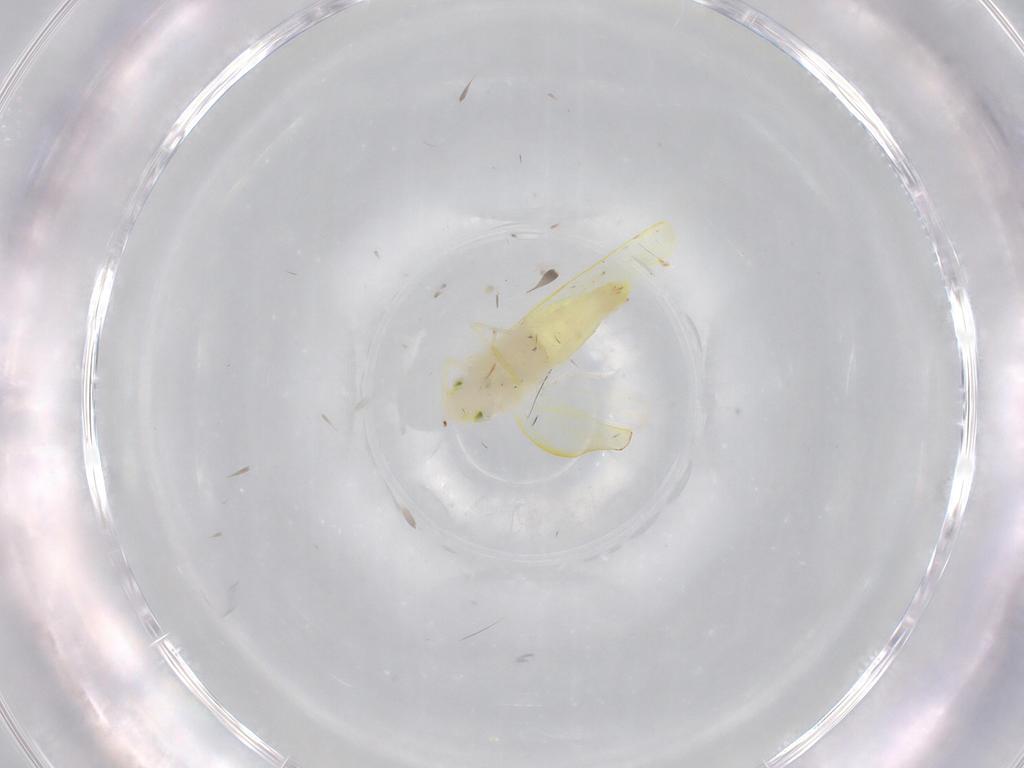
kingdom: Animalia
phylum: Arthropoda
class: Insecta
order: Hemiptera
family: Cicadellidae
